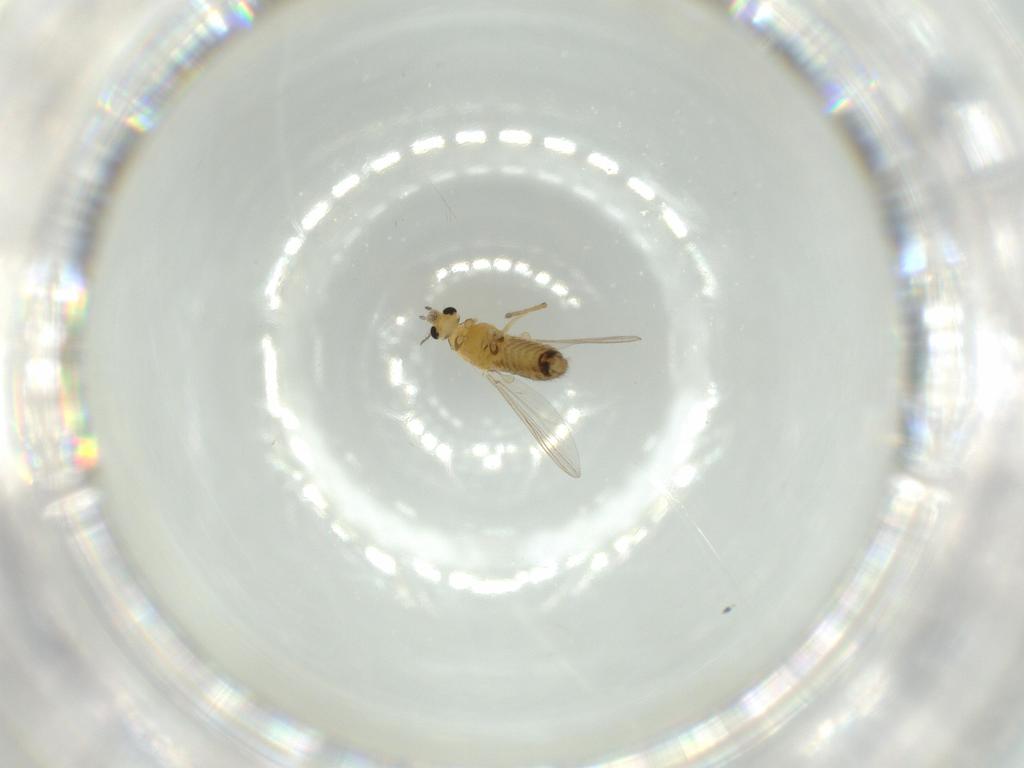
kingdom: Animalia
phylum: Arthropoda
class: Insecta
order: Diptera
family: Chironomidae
